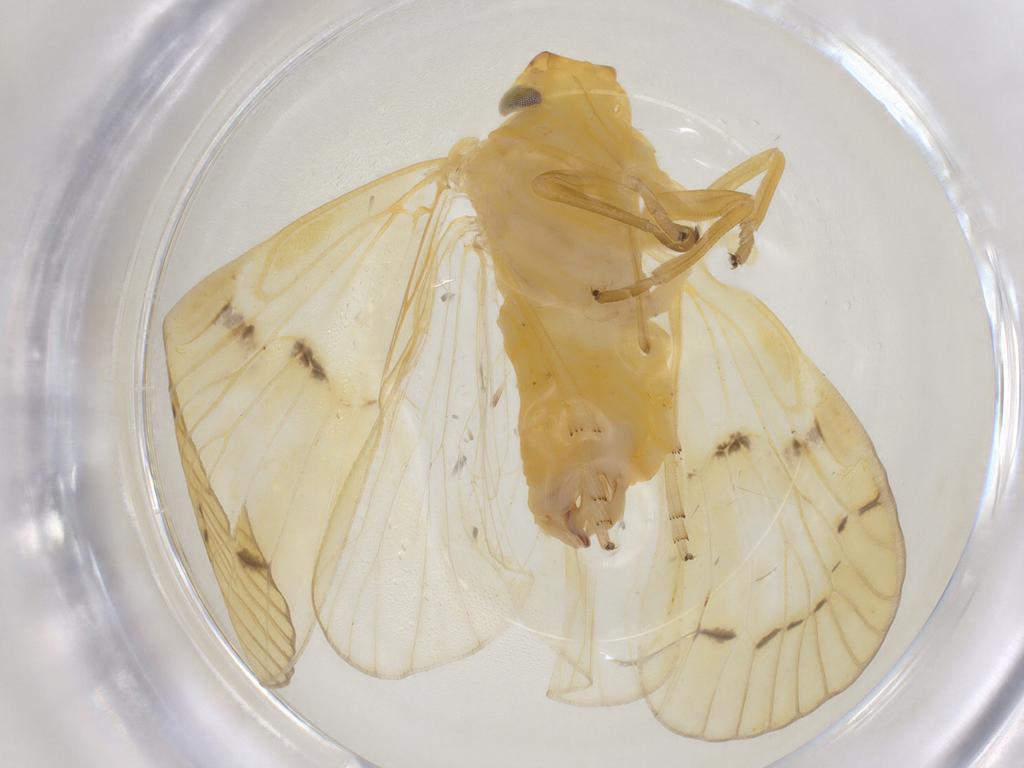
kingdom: Animalia
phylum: Arthropoda
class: Insecta
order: Hemiptera
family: Cixiidae
